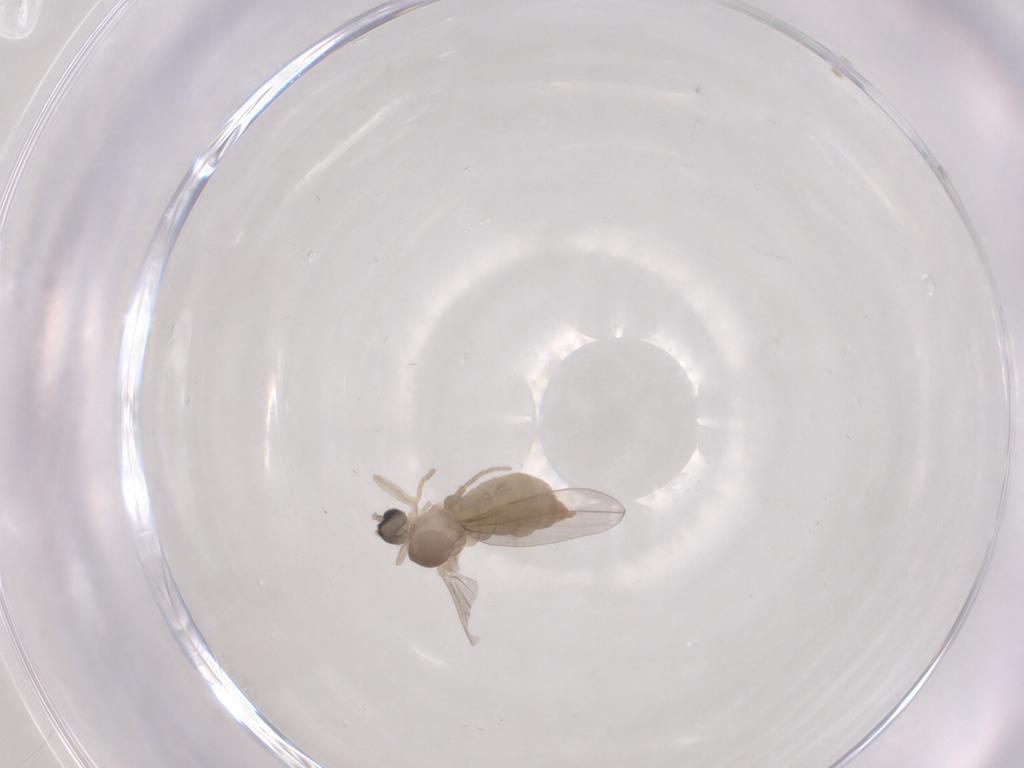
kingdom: Animalia
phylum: Arthropoda
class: Insecta
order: Diptera
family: Cecidomyiidae
